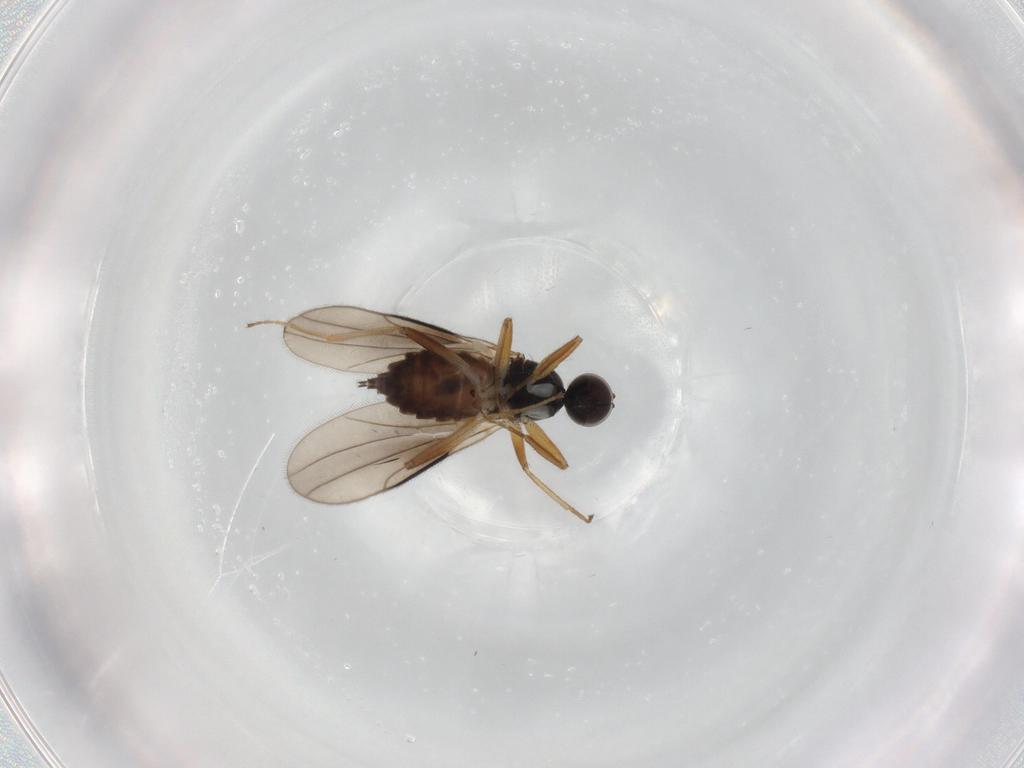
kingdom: Animalia
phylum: Arthropoda
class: Insecta
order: Diptera
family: Hybotidae
